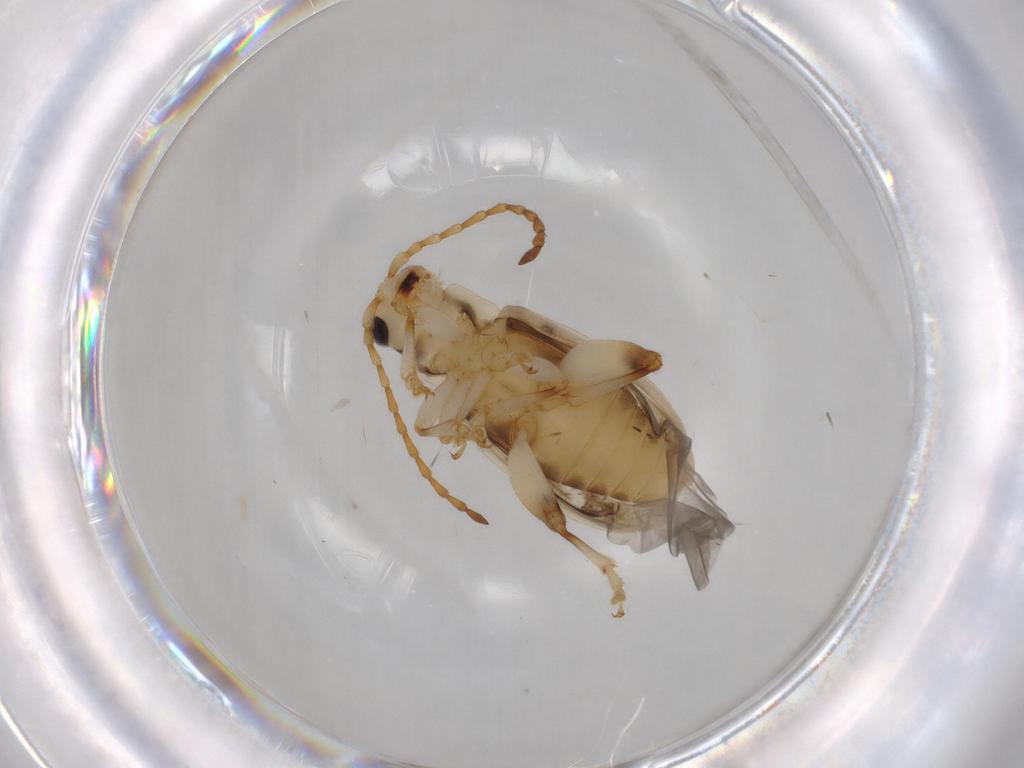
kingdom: Animalia
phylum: Arthropoda
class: Insecta
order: Coleoptera
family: Chrysomelidae
